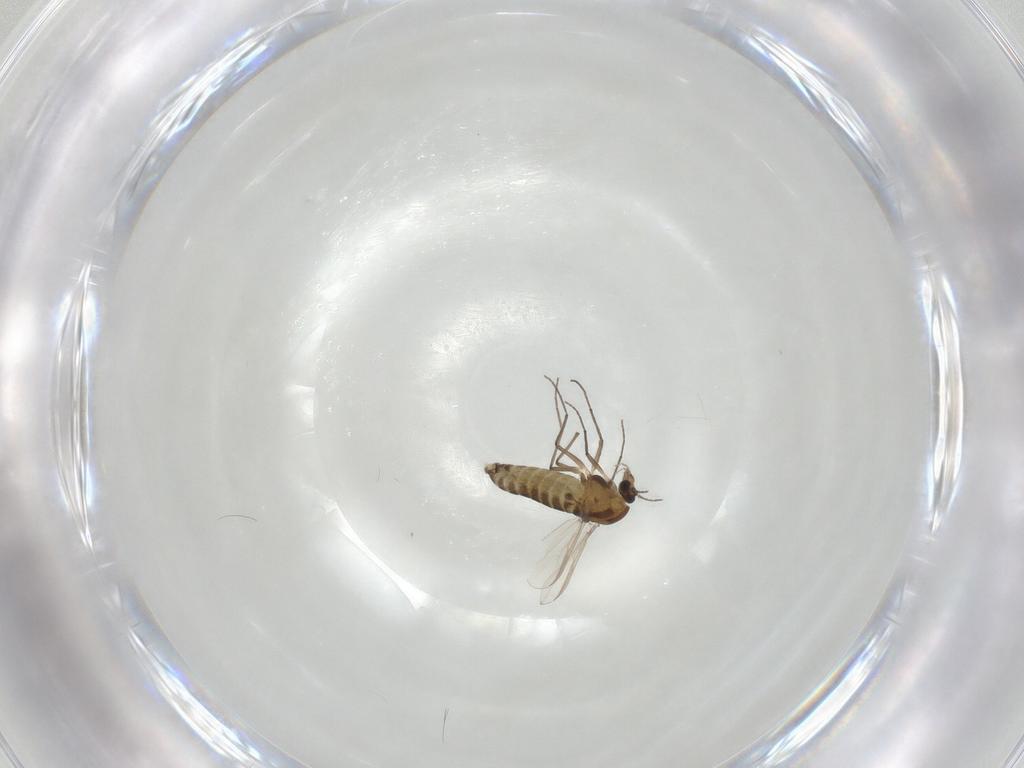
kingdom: Animalia
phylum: Arthropoda
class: Insecta
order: Diptera
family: Chironomidae
